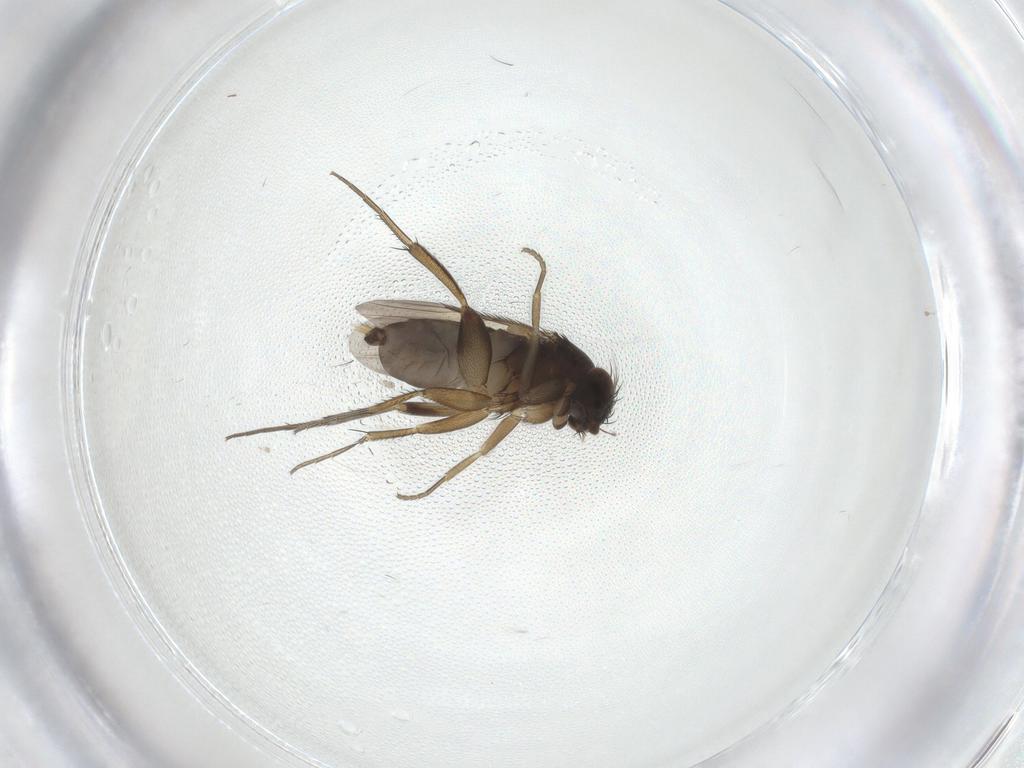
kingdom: Animalia
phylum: Arthropoda
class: Insecta
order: Diptera
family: Limoniidae
